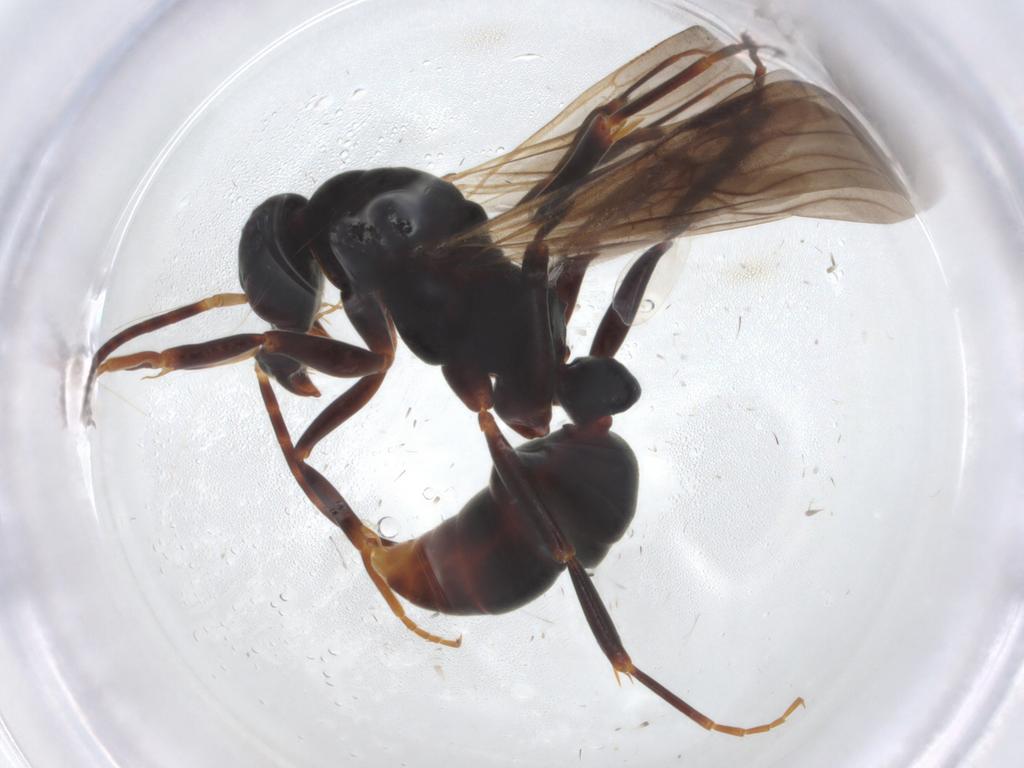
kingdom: Animalia
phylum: Arthropoda
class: Insecta
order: Hymenoptera
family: Formicidae
